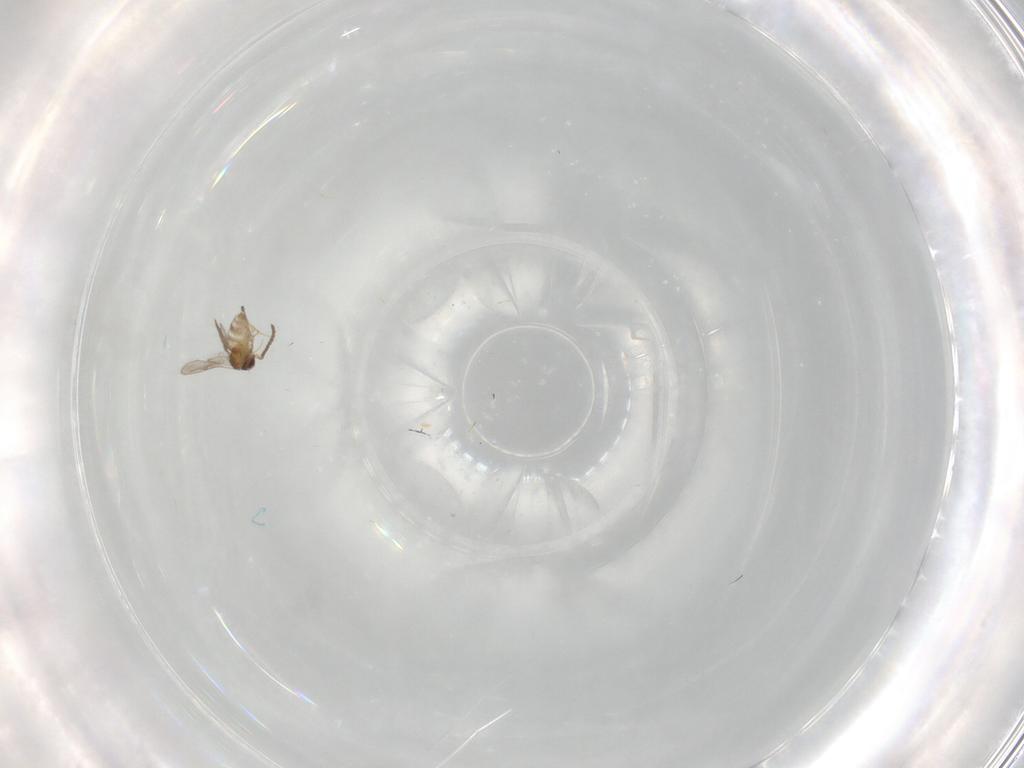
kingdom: Animalia
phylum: Arthropoda
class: Insecta
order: Diptera
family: Ceratopogonidae
